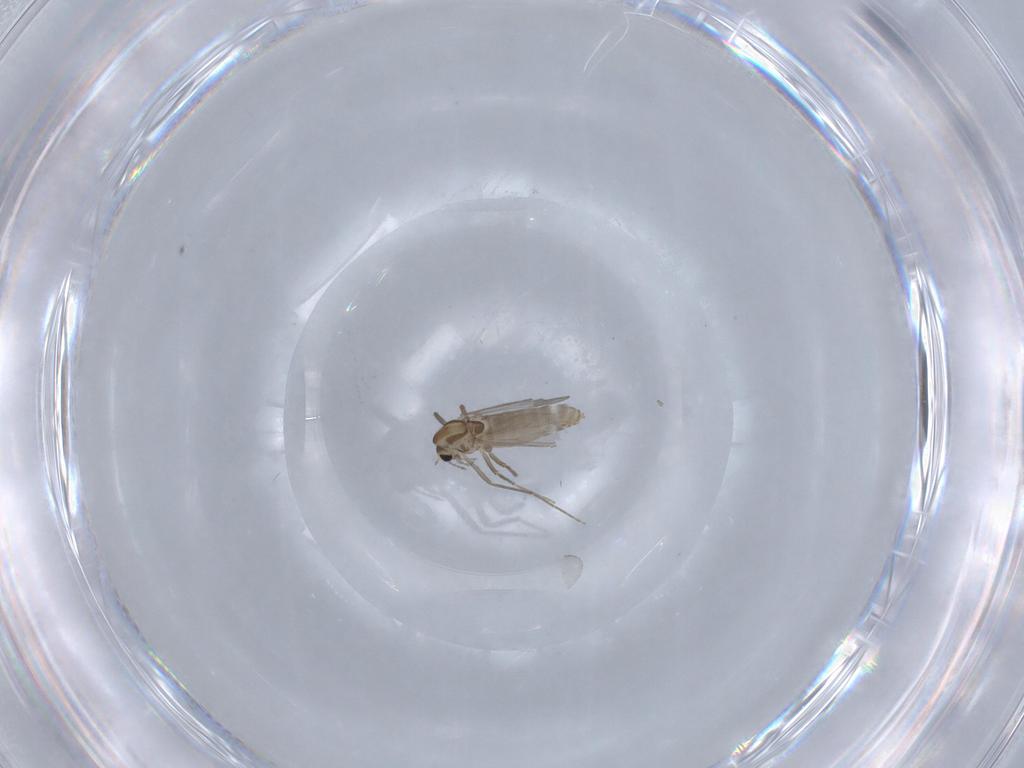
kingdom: Animalia
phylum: Arthropoda
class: Insecta
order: Diptera
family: Chironomidae
